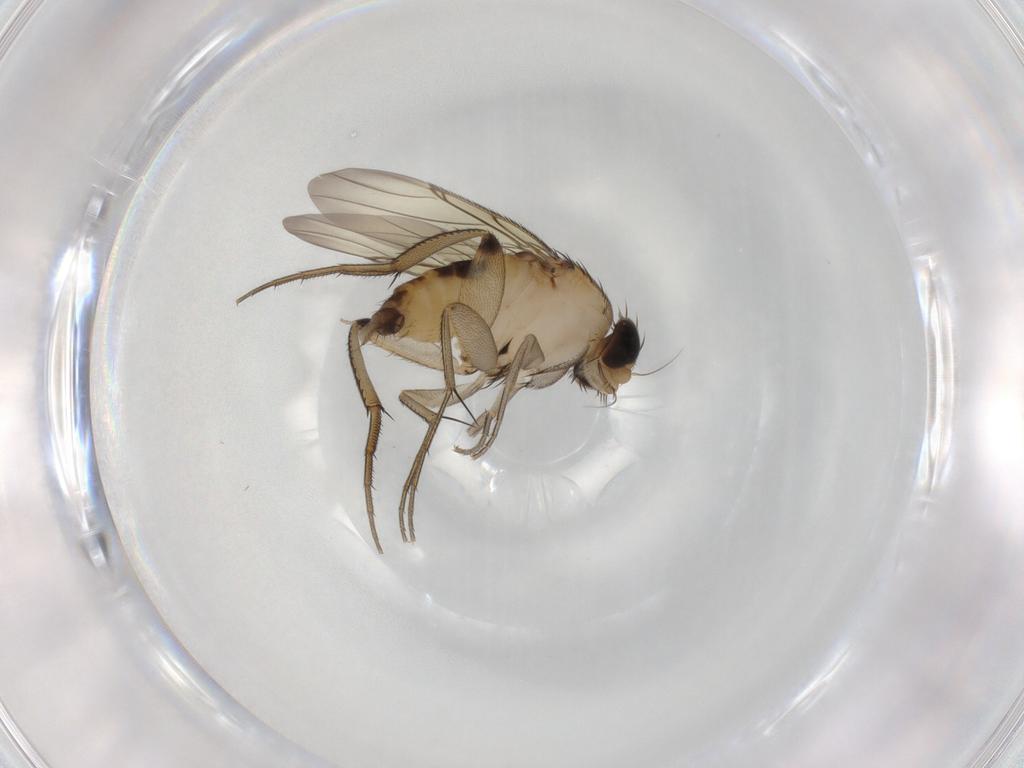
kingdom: Animalia
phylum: Arthropoda
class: Insecta
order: Diptera
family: Phoridae
